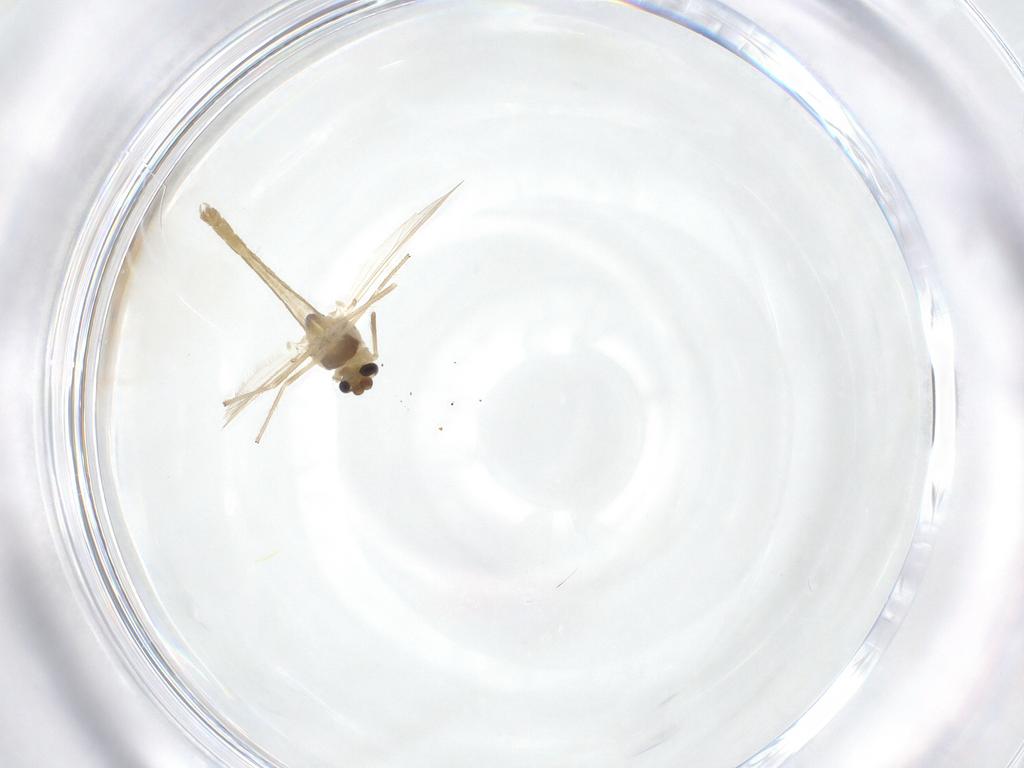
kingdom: Animalia
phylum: Arthropoda
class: Insecta
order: Diptera
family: Chironomidae
